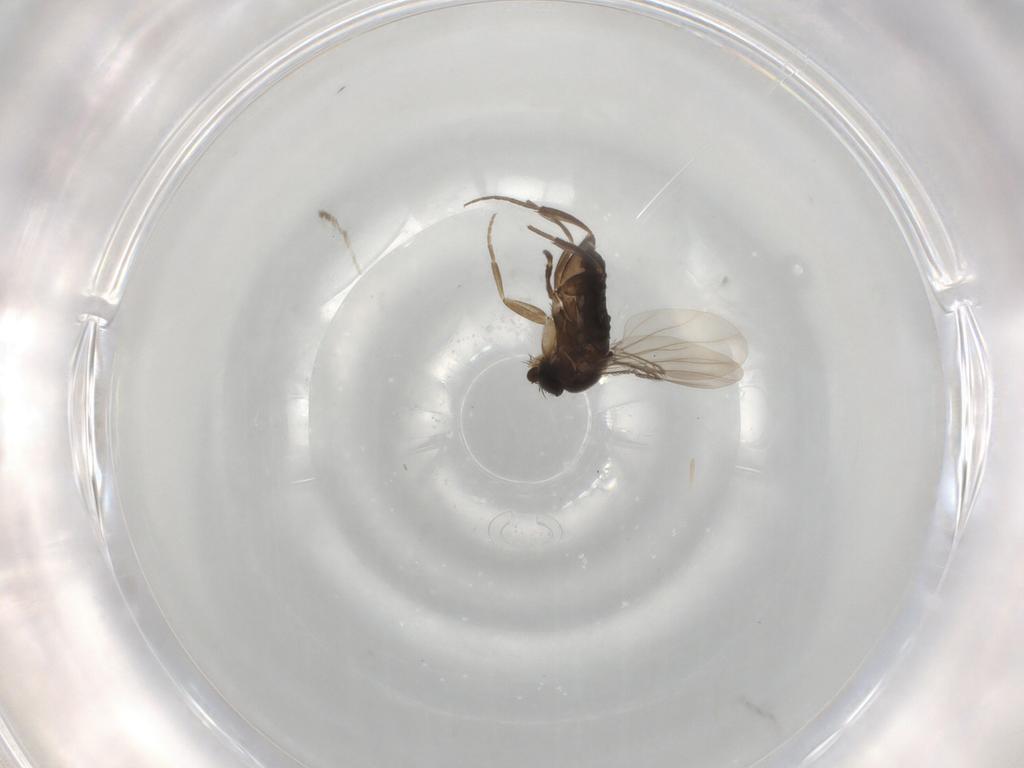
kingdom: Animalia
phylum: Arthropoda
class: Insecta
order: Diptera
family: Phoridae
